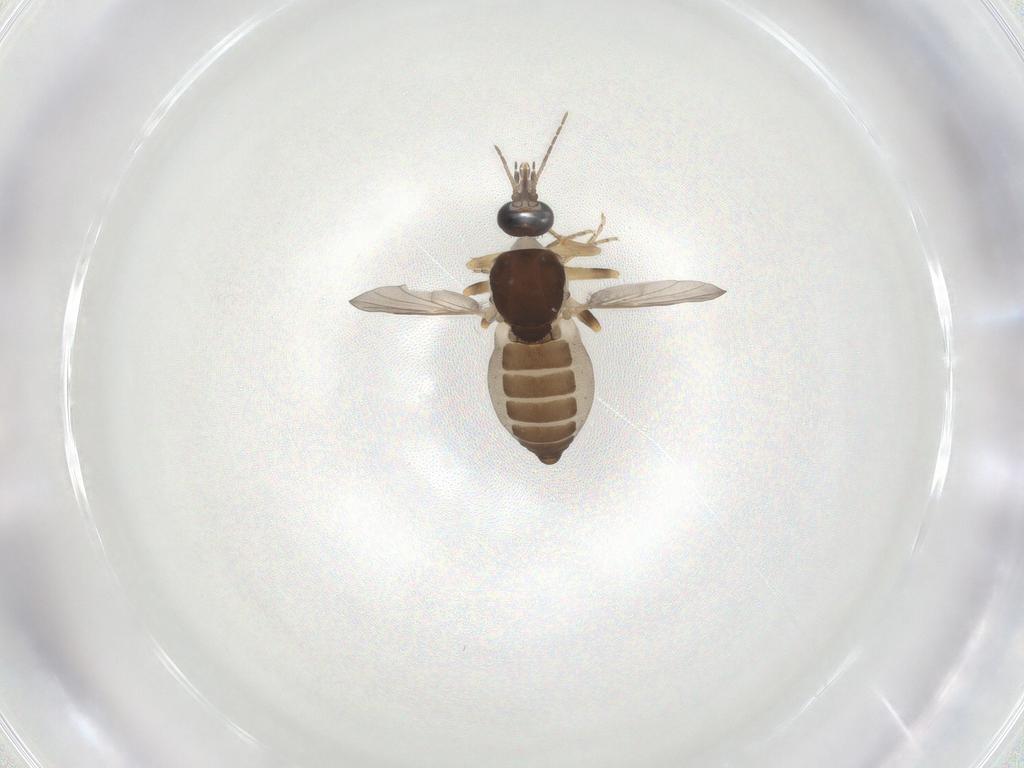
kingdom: Animalia
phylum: Arthropoda
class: Insecta
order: Diptera
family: Ceratopogonidae
